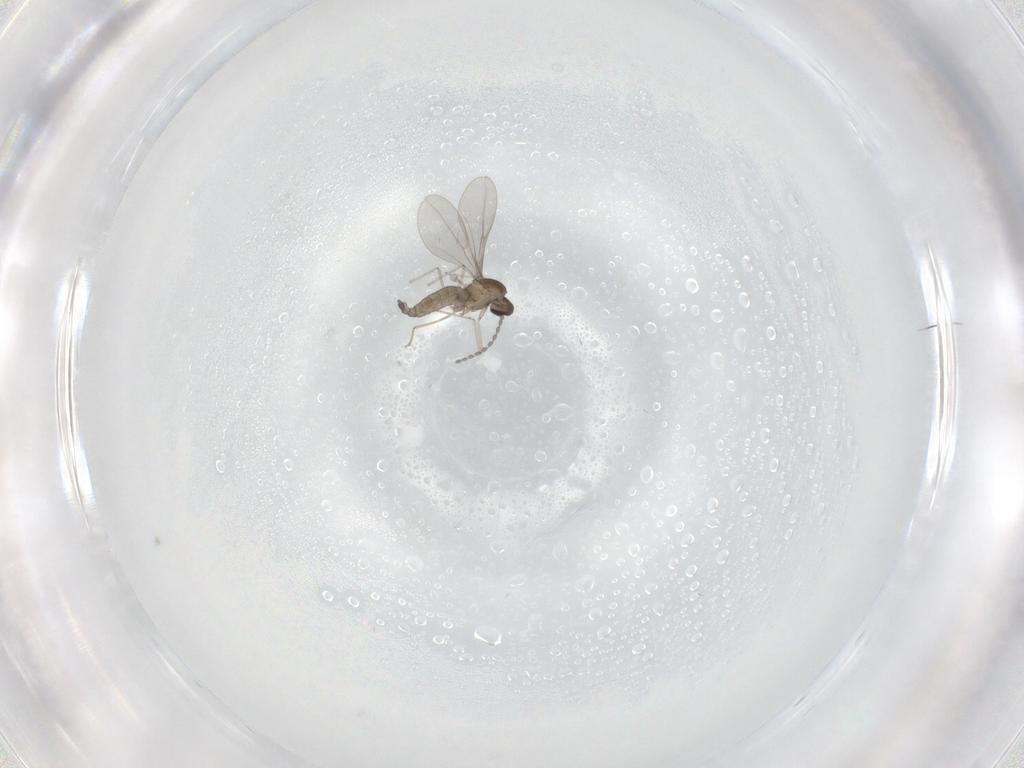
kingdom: Animalia
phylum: Arthropoda
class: Insecta
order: Diptera
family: Cecidomyiidae
